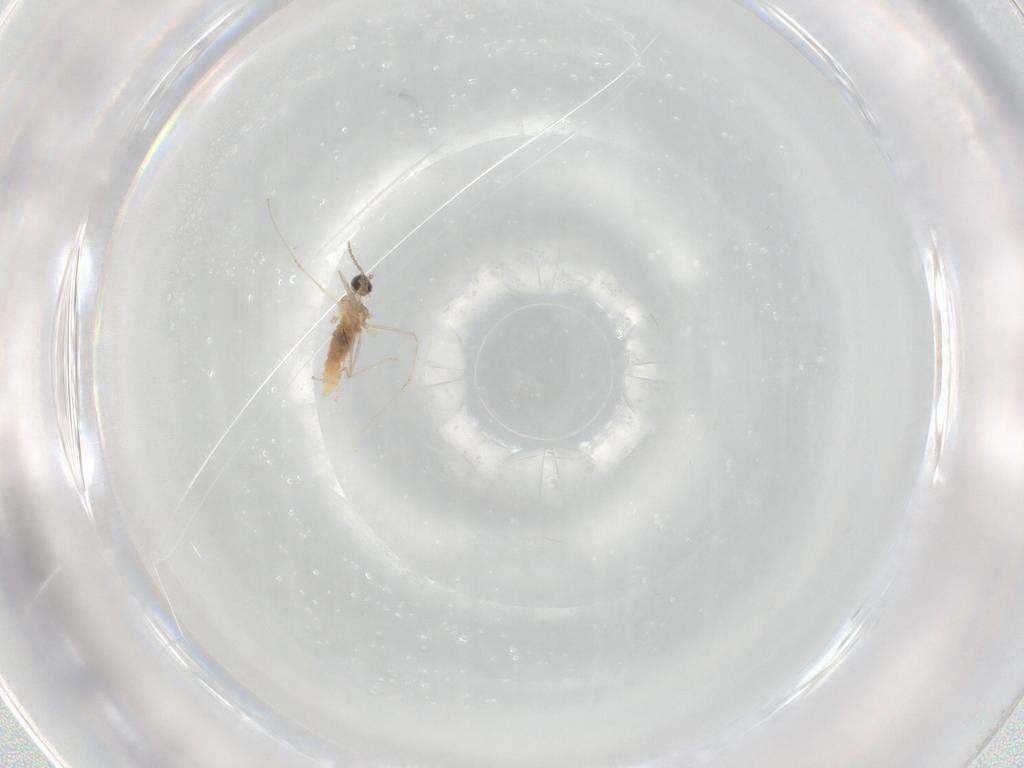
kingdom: Animalia
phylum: Arthropoda
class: Insecta
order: Diptera
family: Cecidomyiidae
